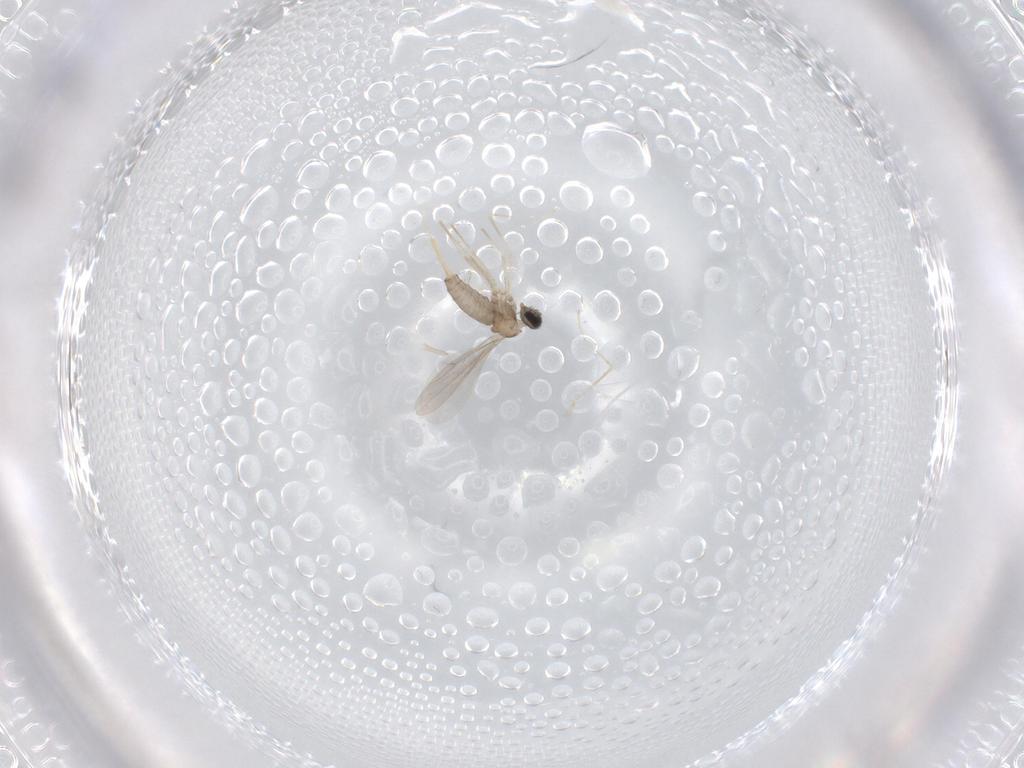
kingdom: Animalia
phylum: Arthropoda
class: Insecta
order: Diptera
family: Cecidomyiidae
